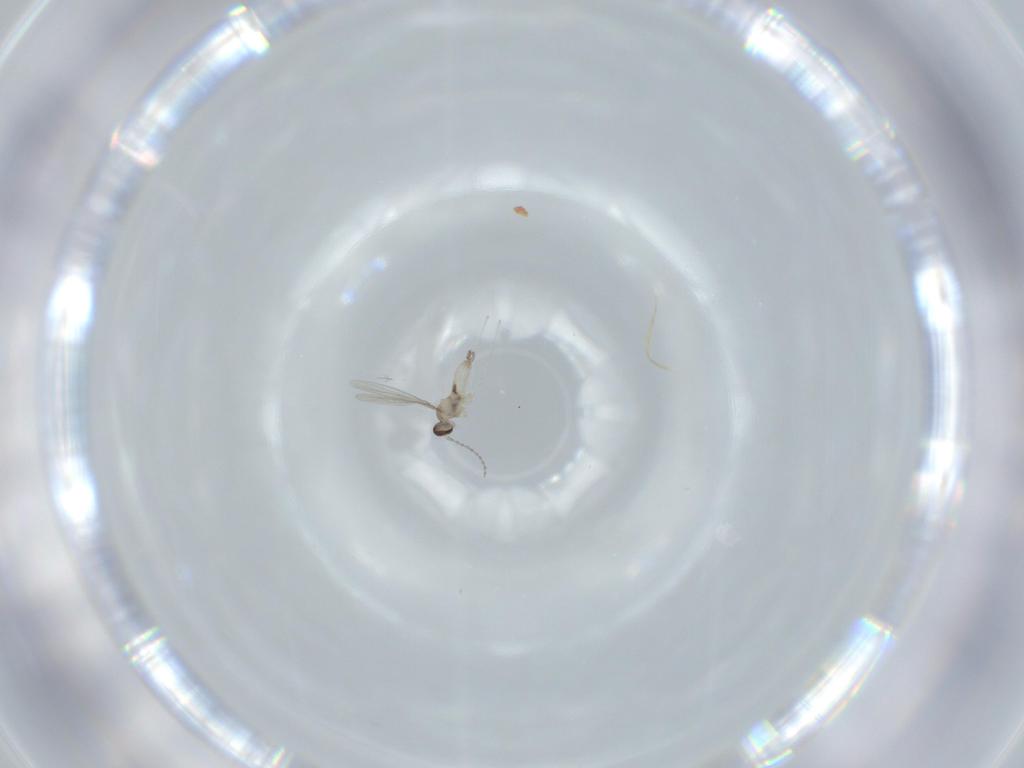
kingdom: Animalia
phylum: Arthropoda
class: Insecta
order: Diptera
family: Cecidomyiidae
